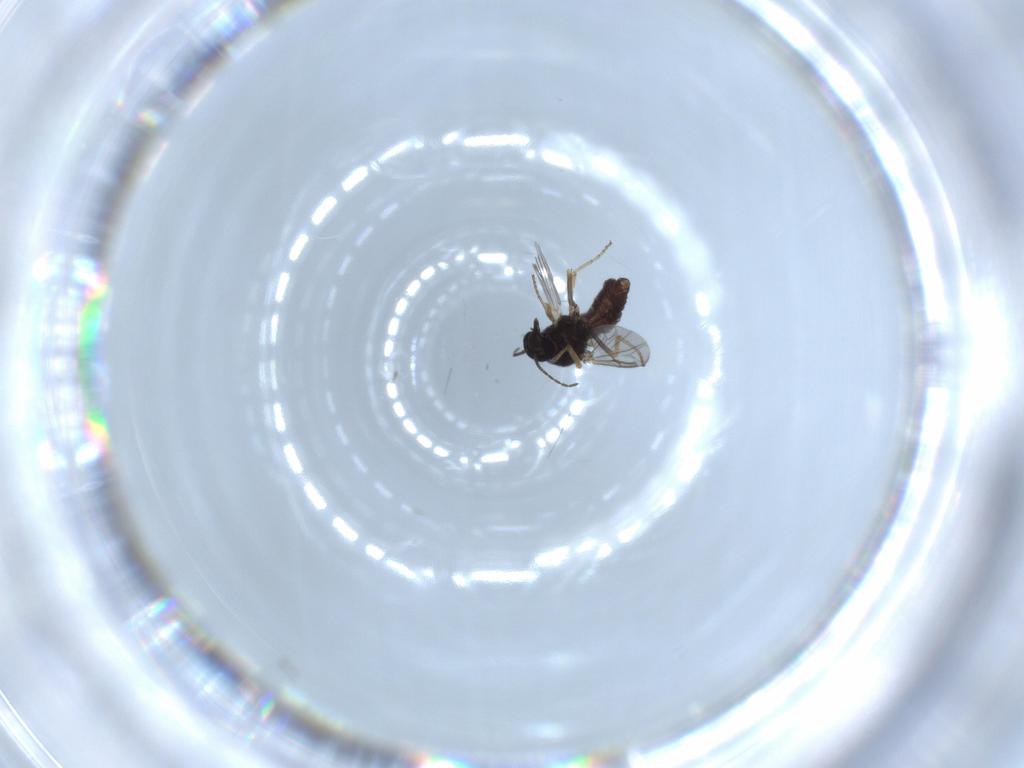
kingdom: Animalia
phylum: Arthropoda
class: Insecta
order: Diptera
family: Ceratopogonidae
